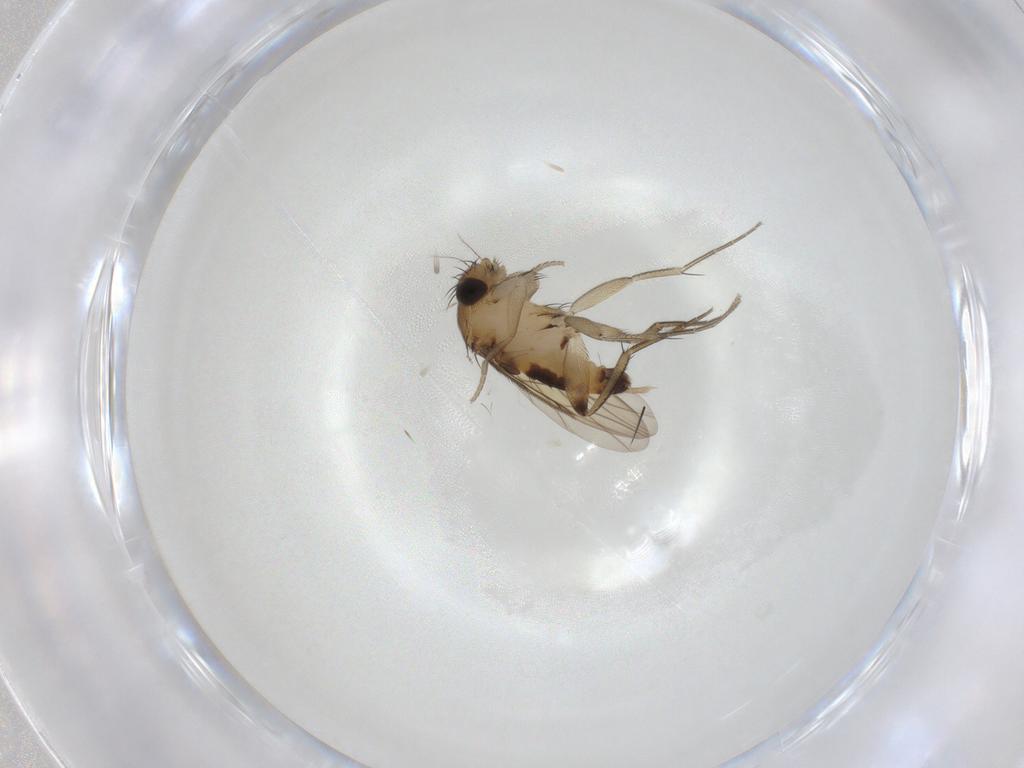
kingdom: Animalia
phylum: Arthropoda
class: Insecta
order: Diptera
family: Phoridae
